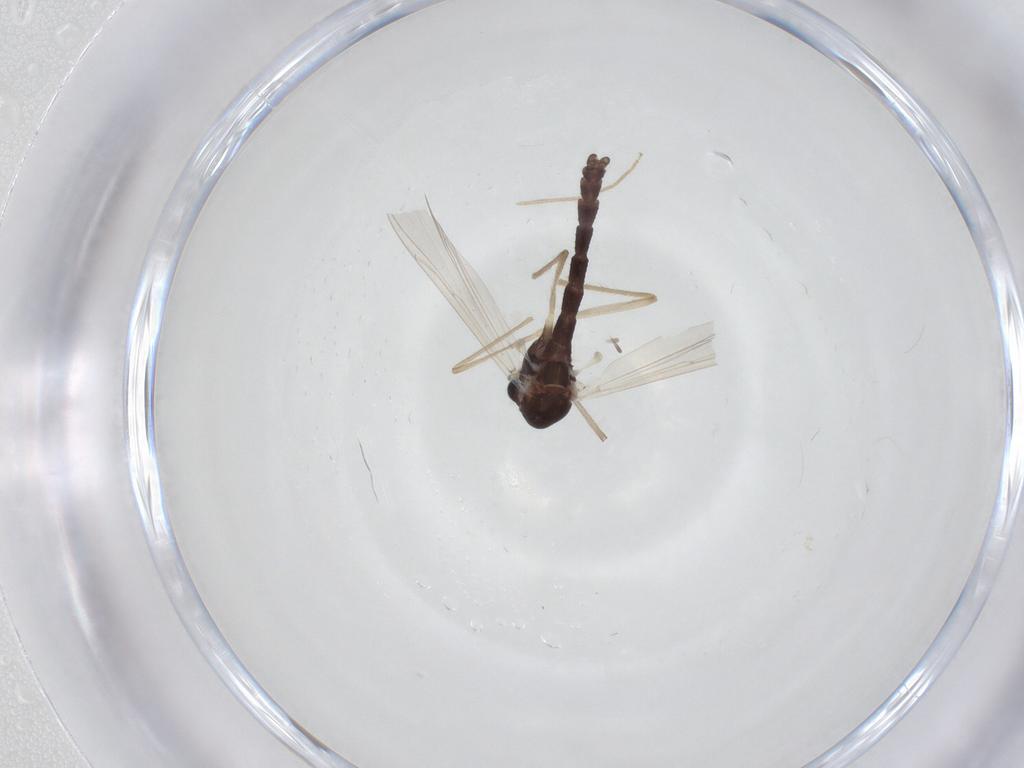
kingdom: Animalia
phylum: Arthropoda
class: Insecta
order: Diptera
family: Chironomidae
